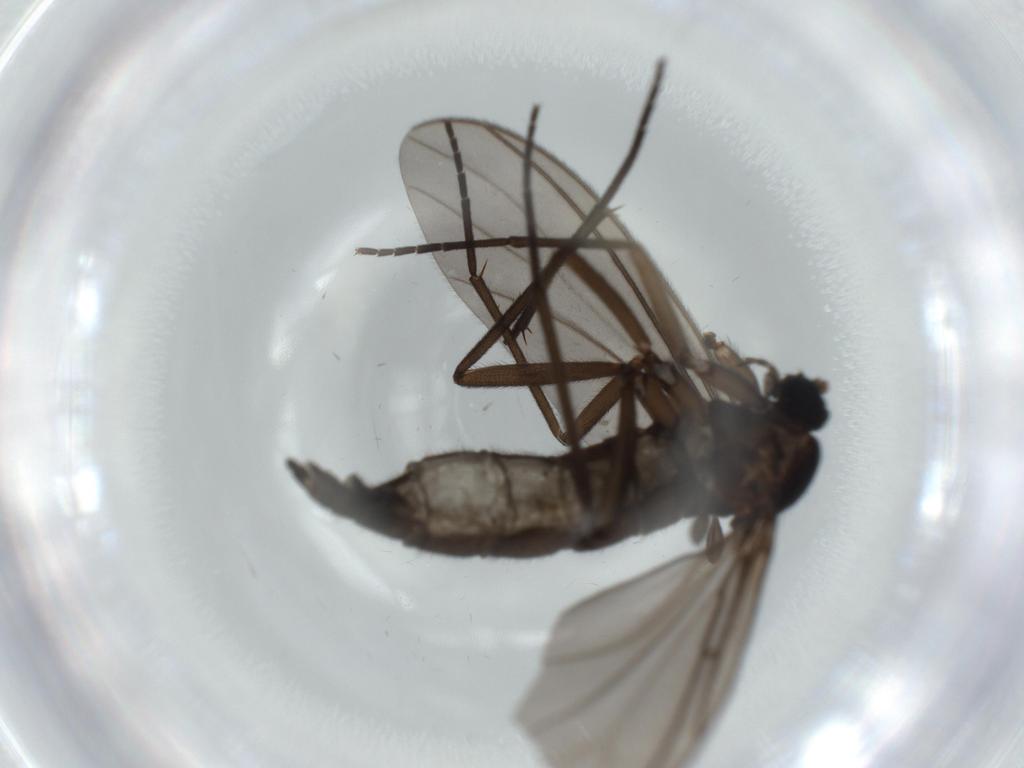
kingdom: Animalia
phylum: Arthropoda
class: Insecta
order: Diptera
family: Sciaridae
